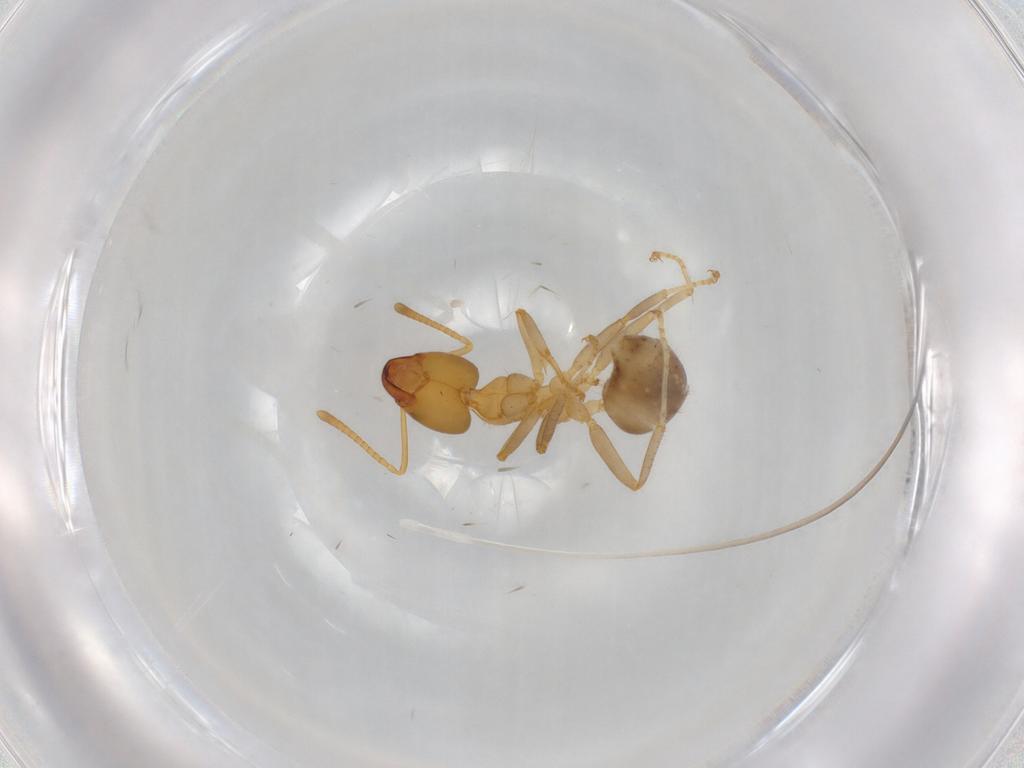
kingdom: Animalia
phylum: Arthropoda
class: Insecta
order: Hymenoptera
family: Formicidae
